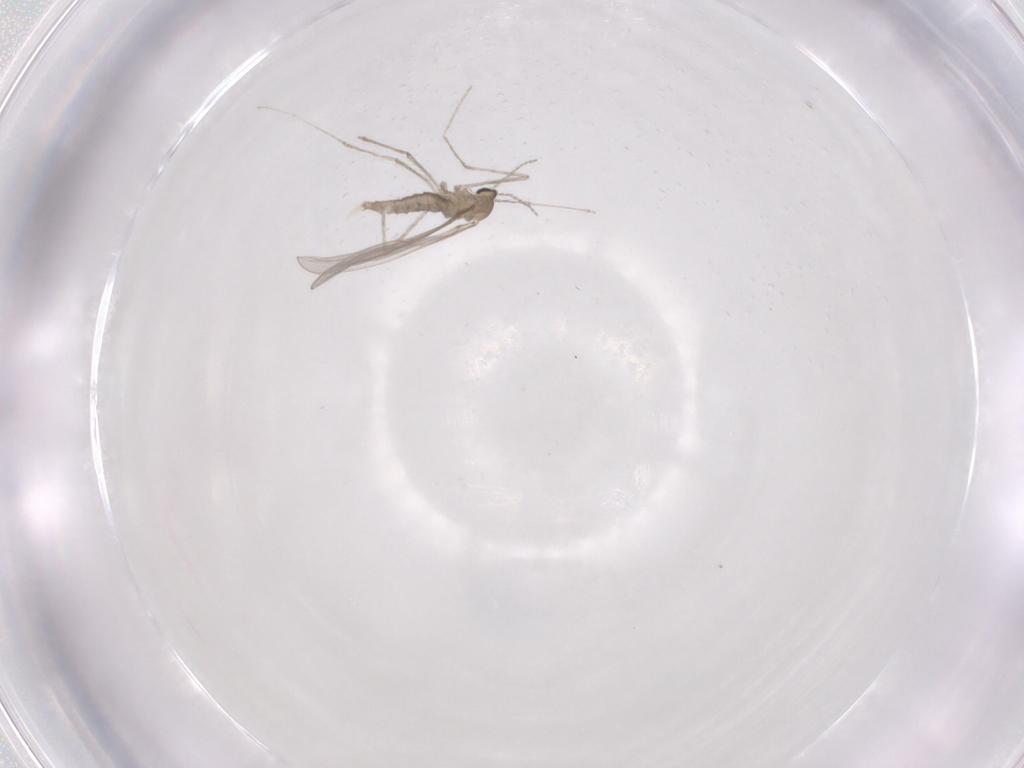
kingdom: Animalia
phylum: Arthropoda
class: Insecta
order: Diptera
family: Cecidomyiidae
